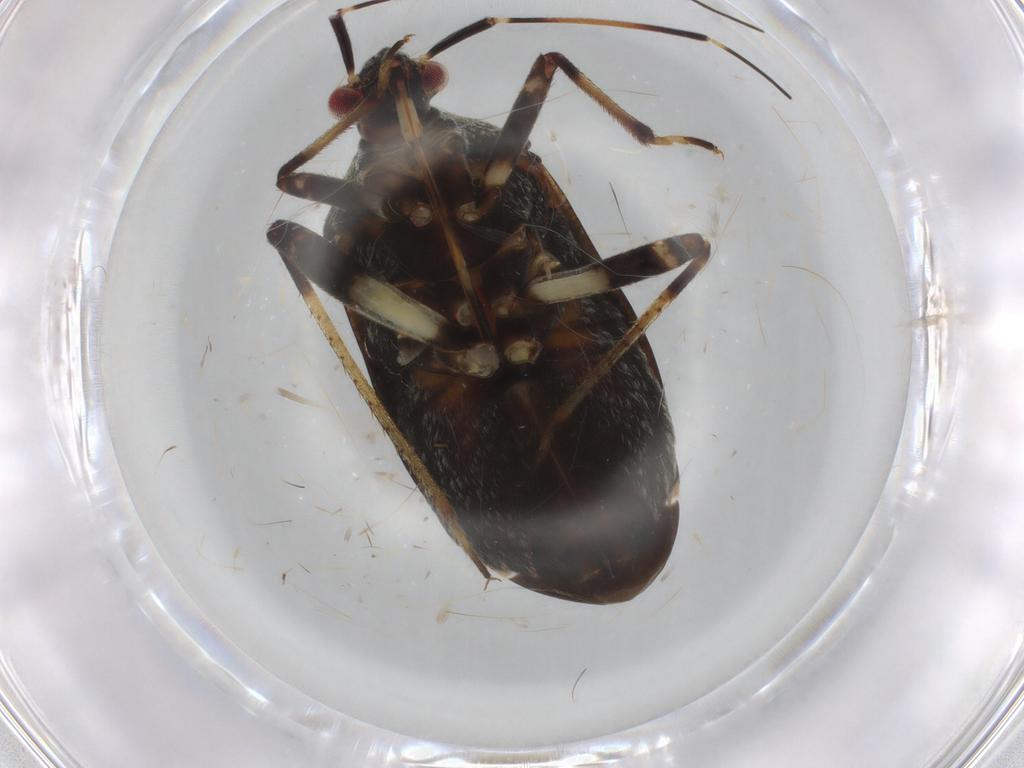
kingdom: Animalia
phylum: Arthropoda
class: Insecta
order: Hemiptera
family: Miridae
